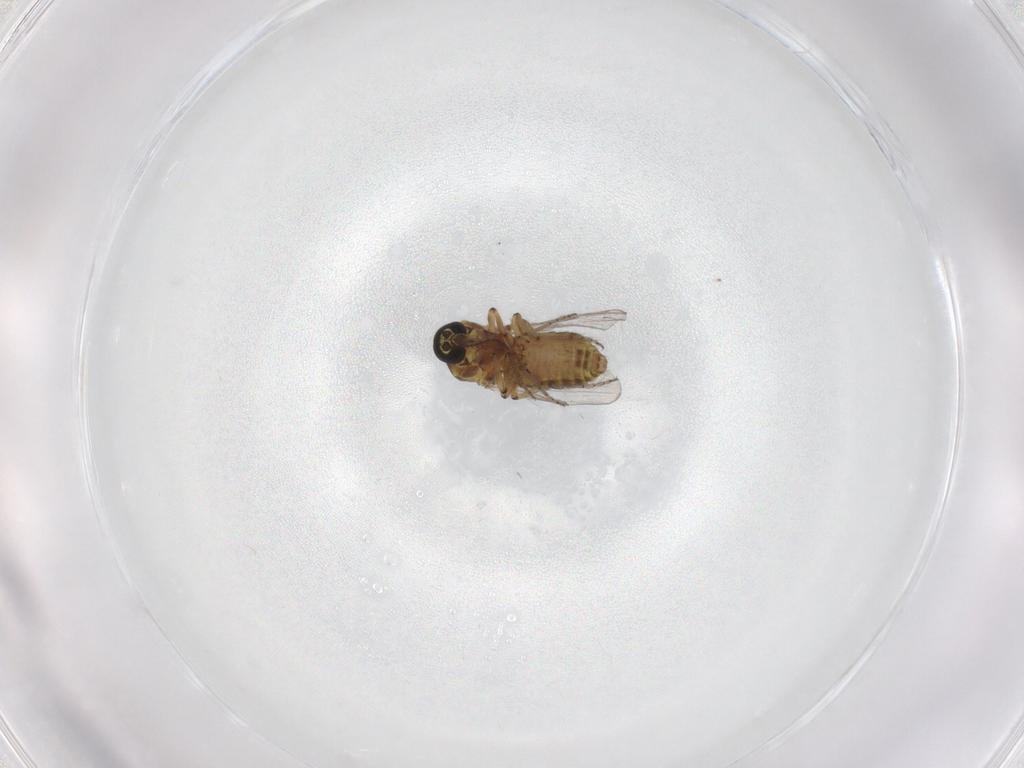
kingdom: Animalia
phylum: Arthropoda
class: Insecta
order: Diptera
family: Ceratopogonidae
